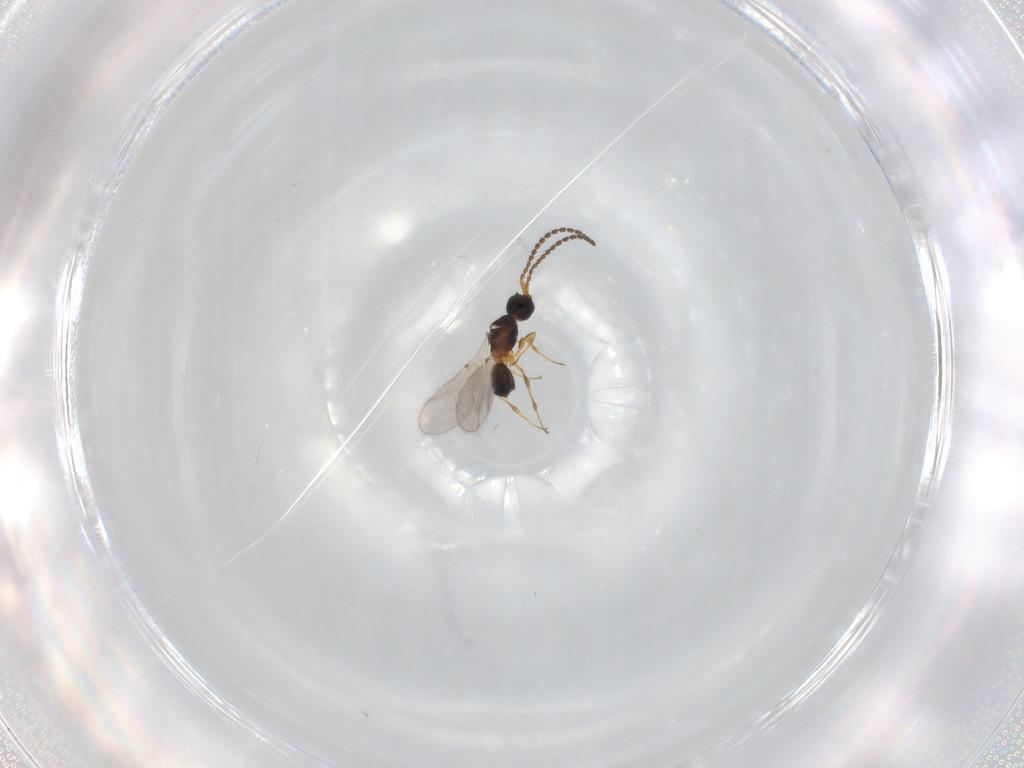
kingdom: Animalia
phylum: Arthropoda
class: Insecta
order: Hymenoptera
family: Diapriidae
